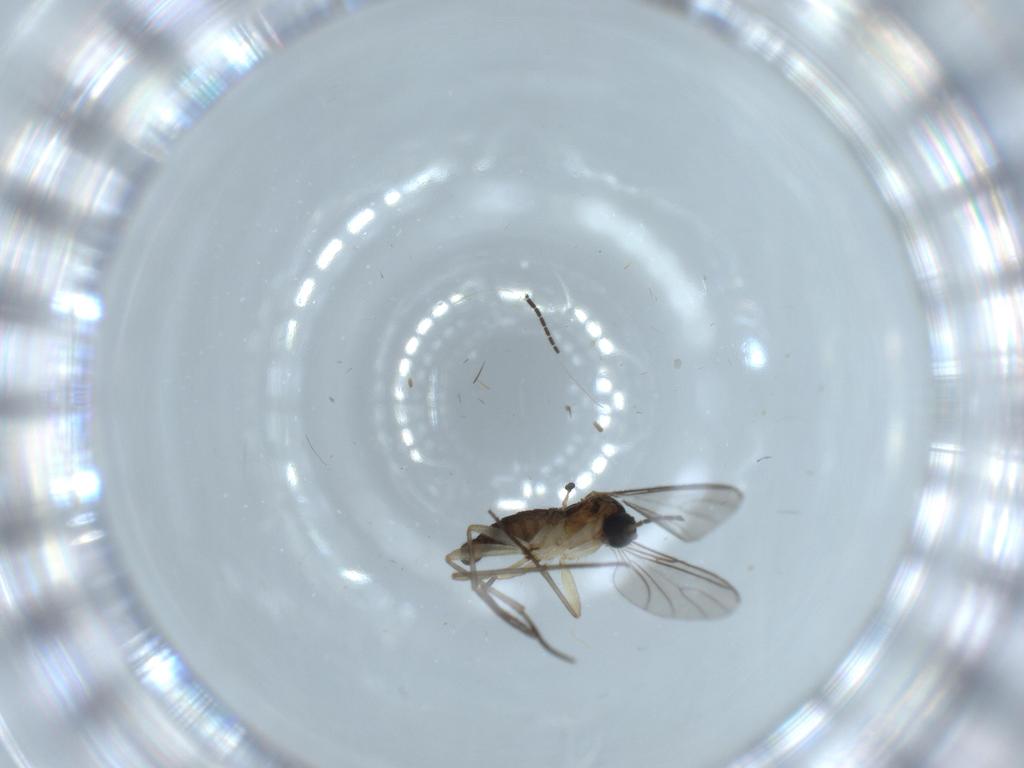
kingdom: Animalia
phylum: Arthropoda
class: Insecta
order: Diptera
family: Sciaridae
